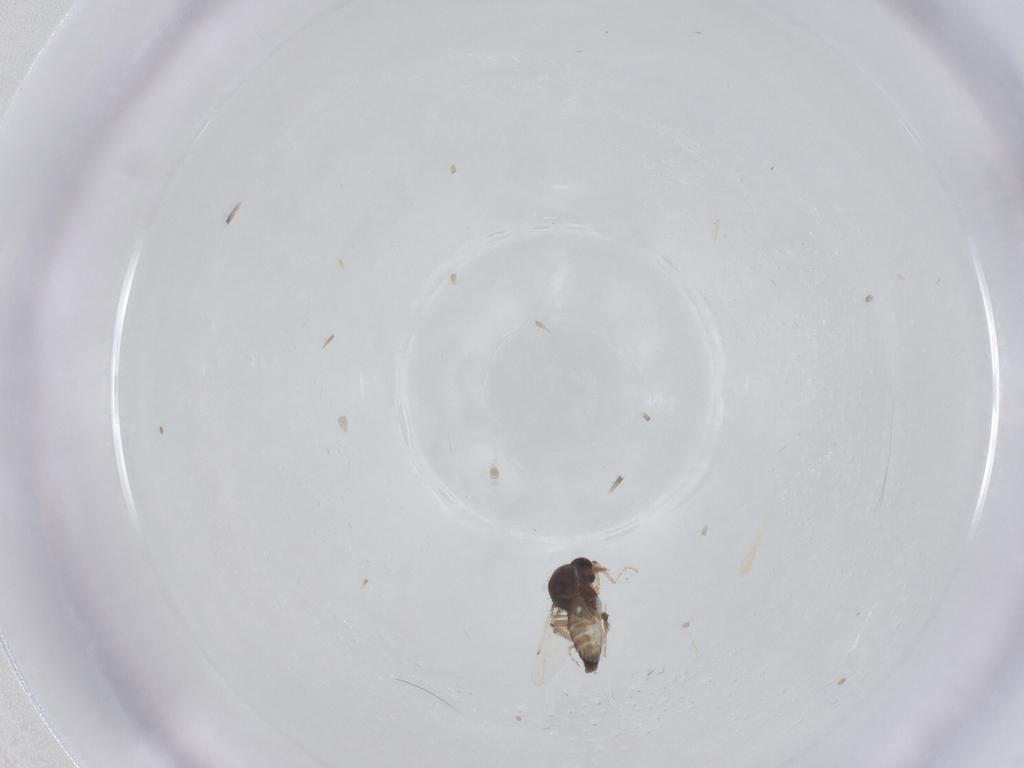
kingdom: Animalia
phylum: Arthropoda
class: Insecta
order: Diptera
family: Ceratopogonidae
